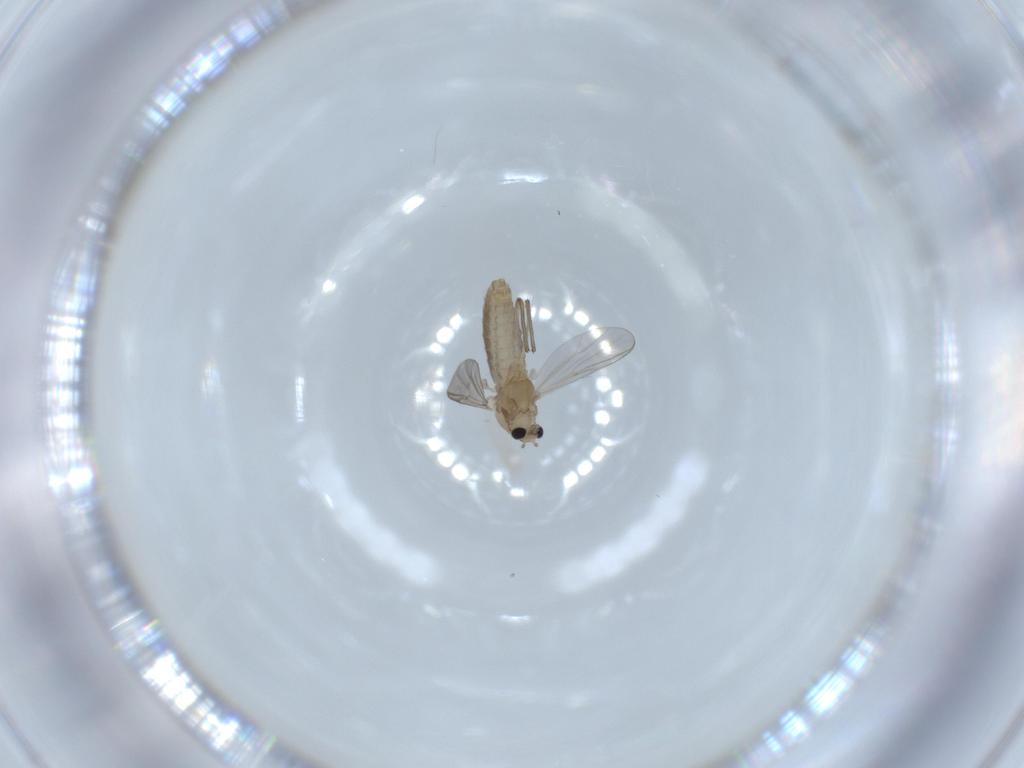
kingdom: Animalia
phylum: Arthropoda
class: Insecta
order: Diptera
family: Chironomidae
